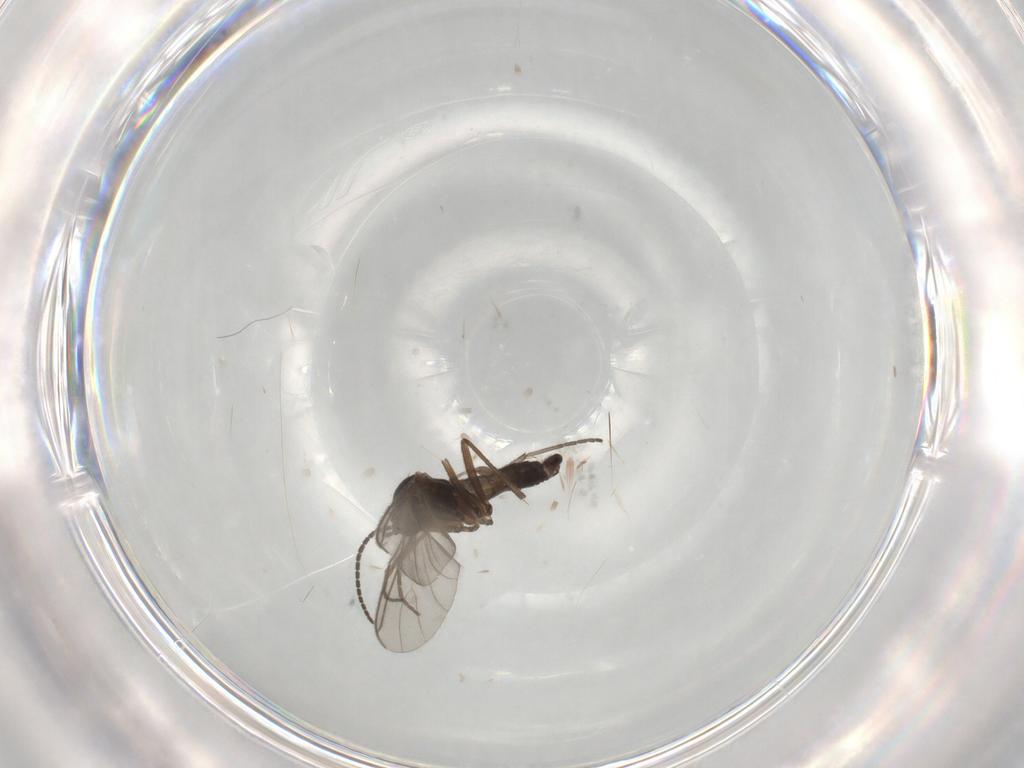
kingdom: Animalia
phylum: Arthropoda
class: Insecta
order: Diptera
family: Sciaridae
